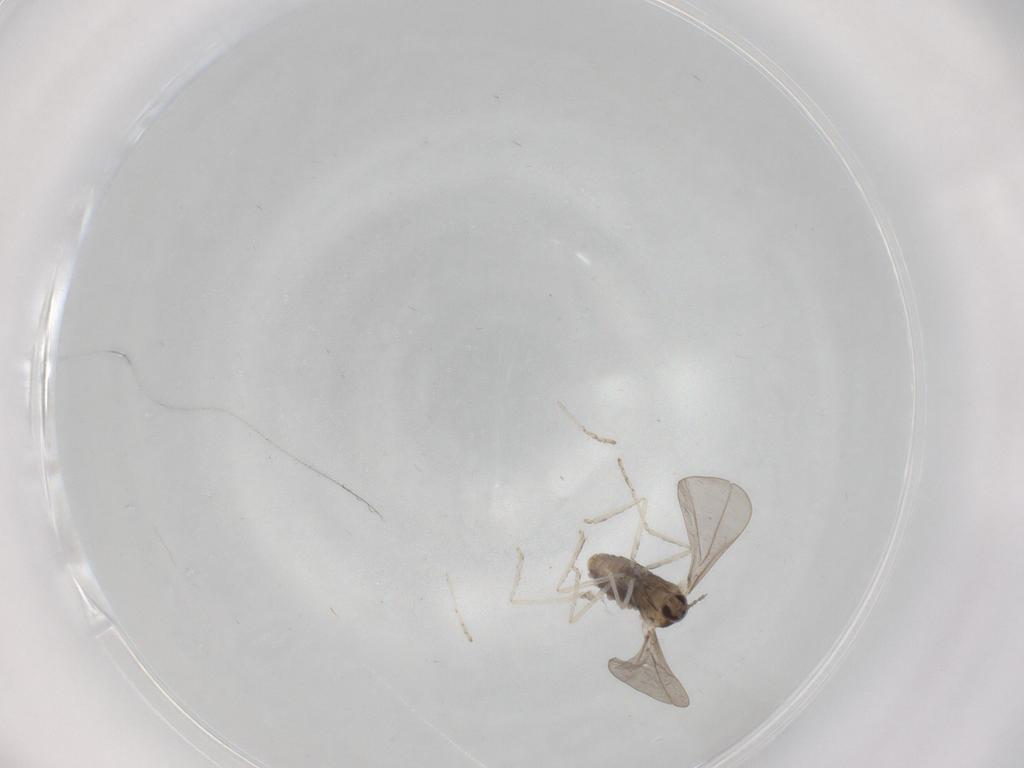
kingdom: Animalia
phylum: Arthropoda
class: Insecta
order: Diptera
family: Cecidomyiidae
